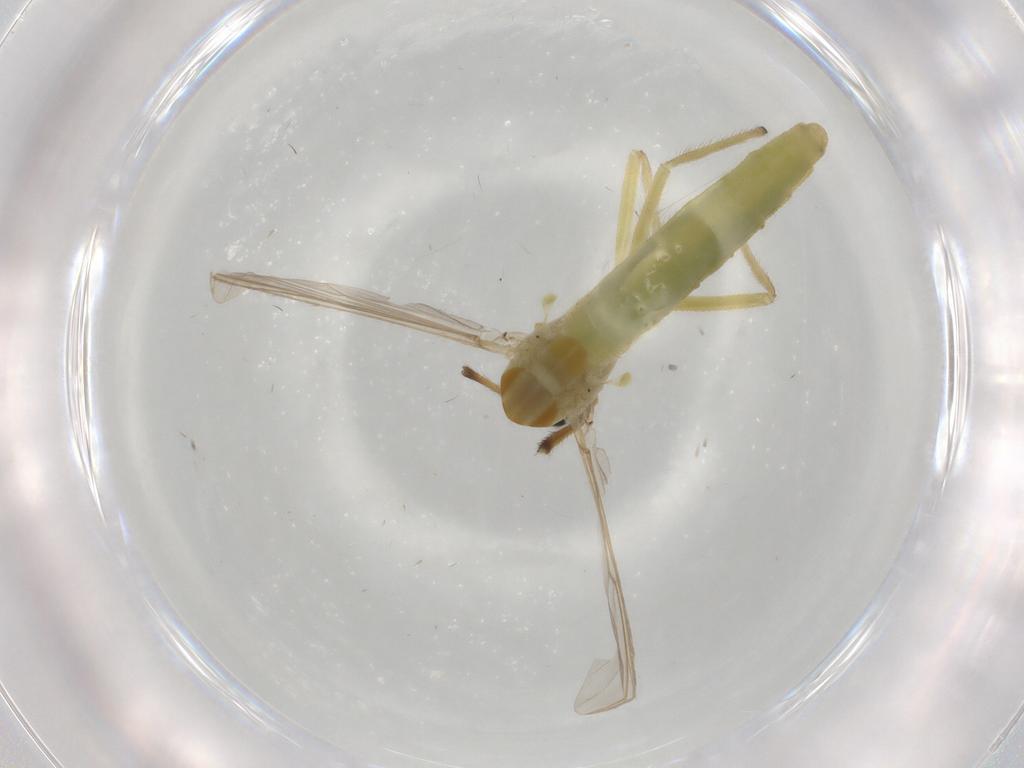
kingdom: Animalia
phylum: Arthropoda
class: Insecta
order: Diptera
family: Chironomidae
